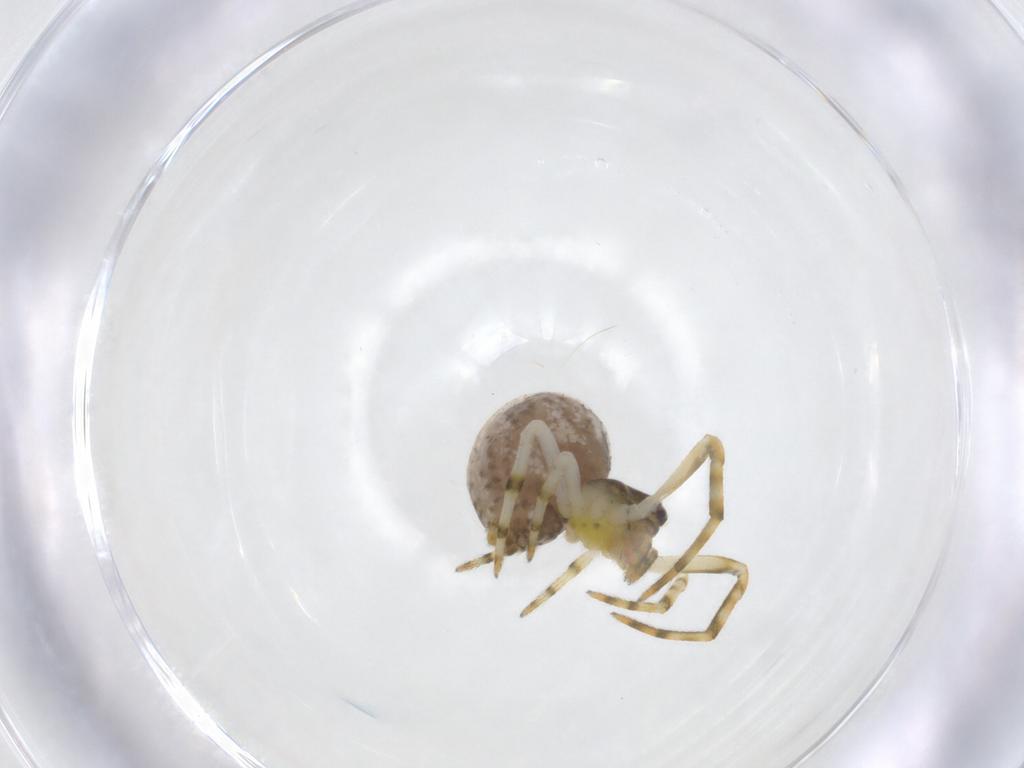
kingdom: Animalia
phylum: Arthropoda
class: Arachnida
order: Araneae
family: Theridiidae
